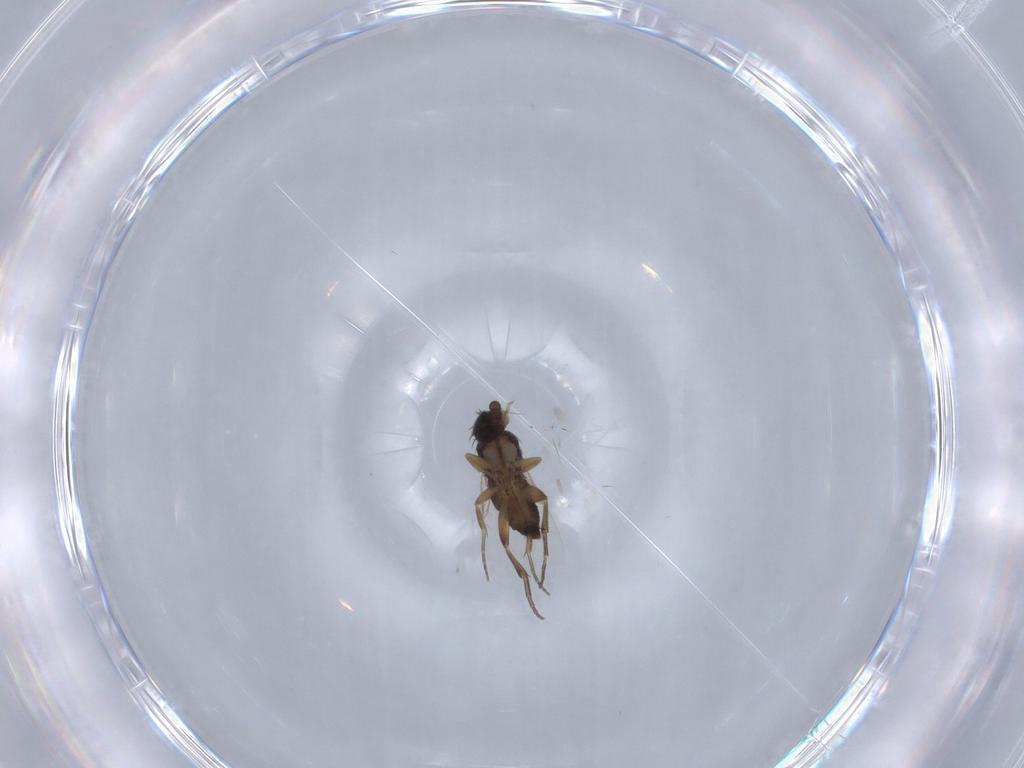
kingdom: Animalia
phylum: Arthropoda
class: Insecta
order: Diptera
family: Phoridae
